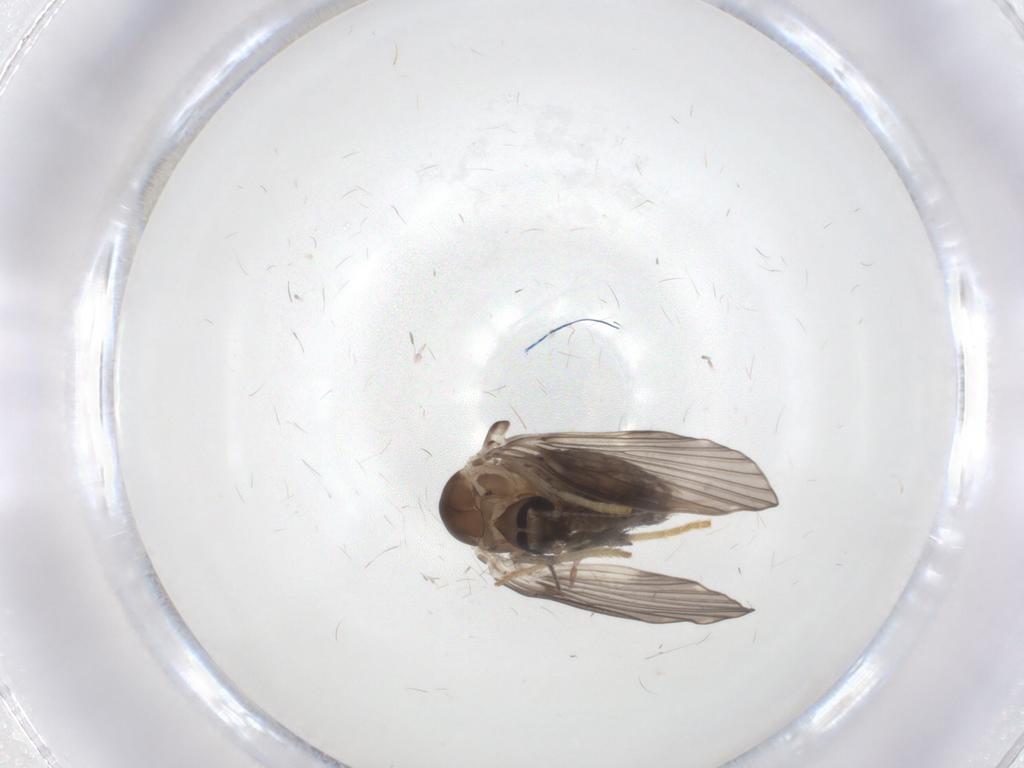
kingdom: Animalia
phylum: Arthropoda
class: Insecta
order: Diptera
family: Psychodidae
